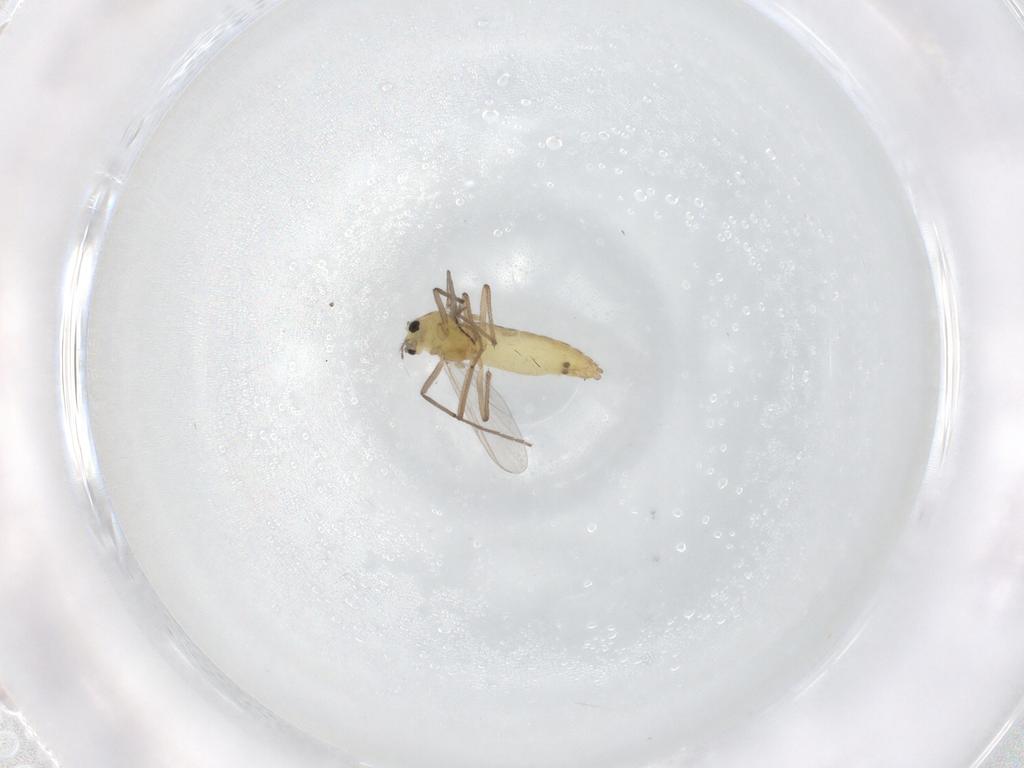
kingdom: Animalia
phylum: Arthropoda
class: Insecta
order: Diptera
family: Chironomidae
